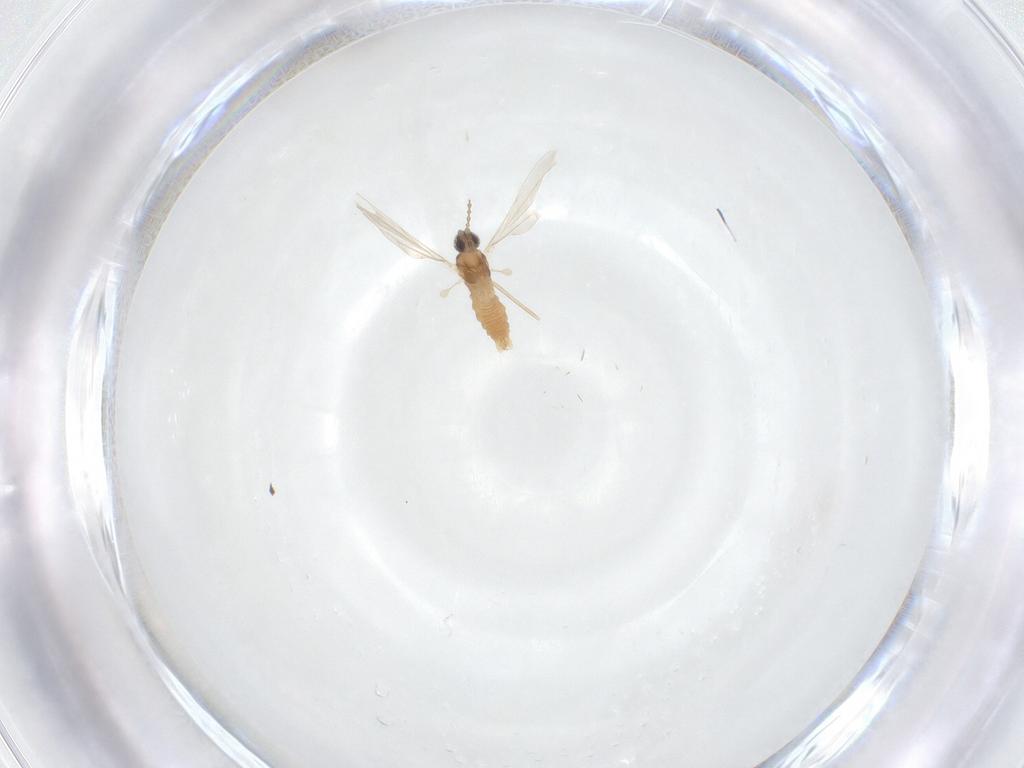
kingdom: Animalia
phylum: Arthropoda
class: Insecta
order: Diptera
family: Cecidomyiidae
